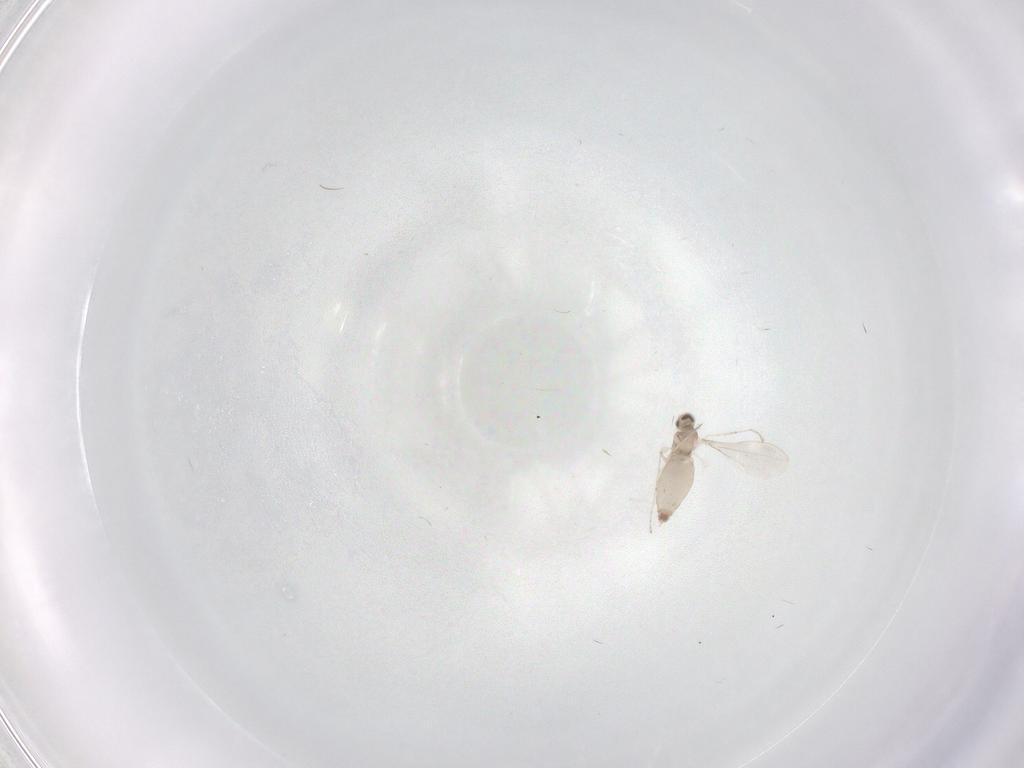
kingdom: Animalia
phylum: Arthropoda
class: Insecta
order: Diptera
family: Cecidomyiidae
